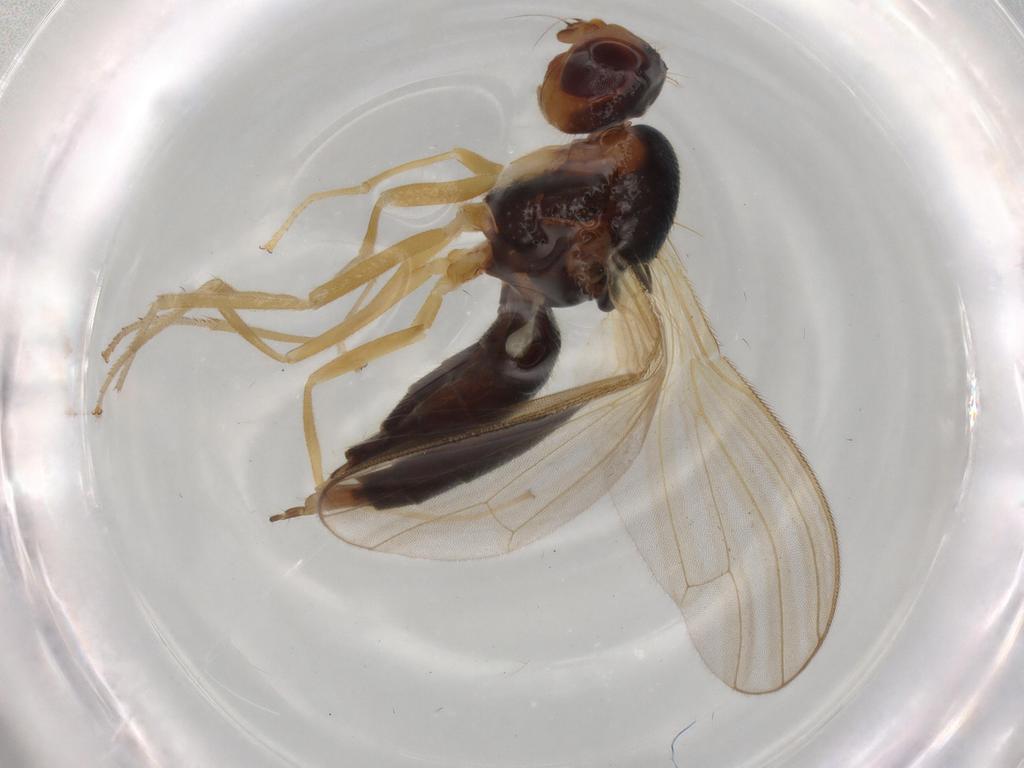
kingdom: Animalia
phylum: Arthropoda
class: Insecta
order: Diptera
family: Psilidae
